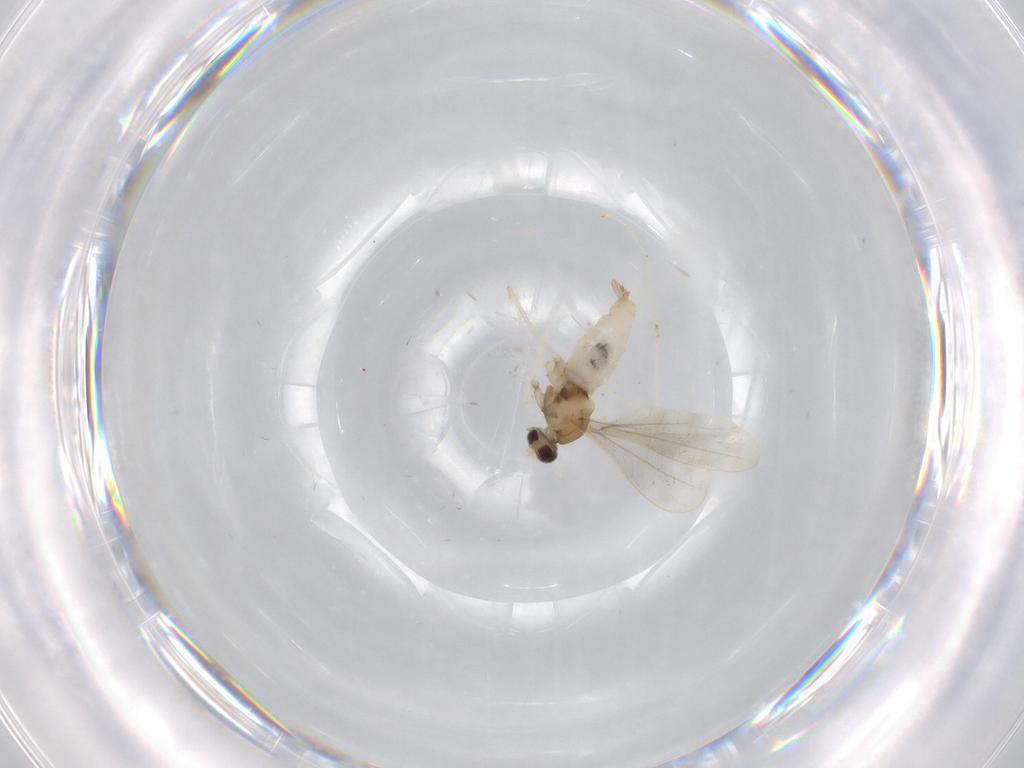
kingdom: Animalia
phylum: Arthropoda
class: Insecta
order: Diptera
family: Cecidomyiidae
